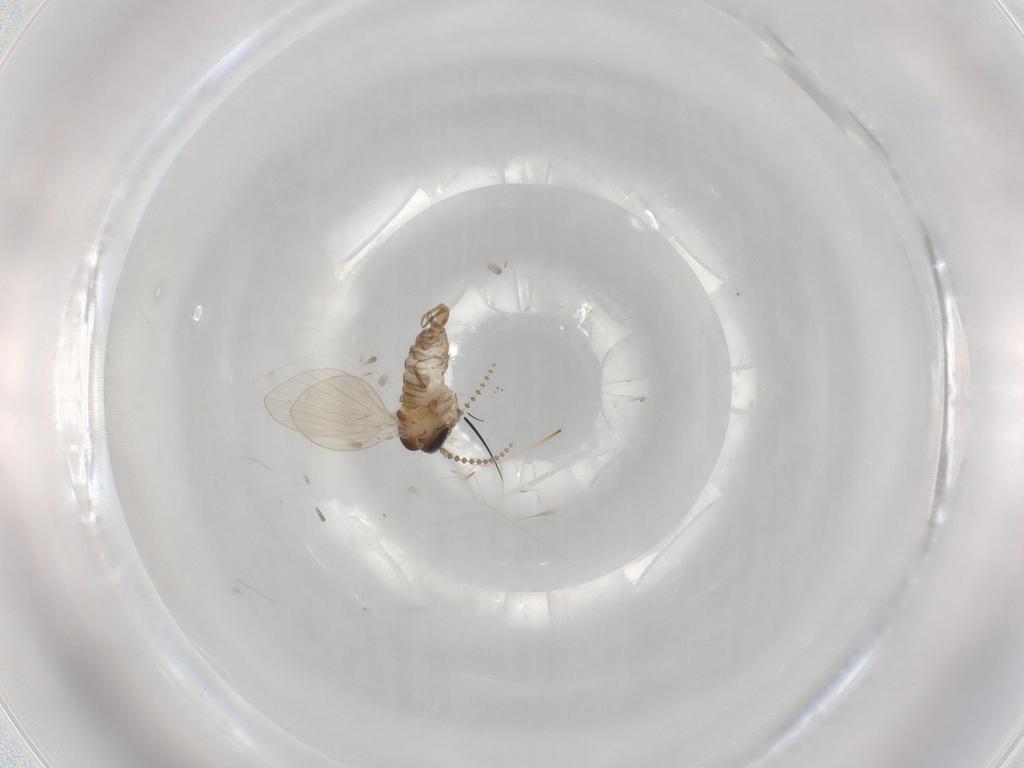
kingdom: Animalia
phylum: Arthropoda
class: Insecta
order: Diptera
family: Psychodidae
